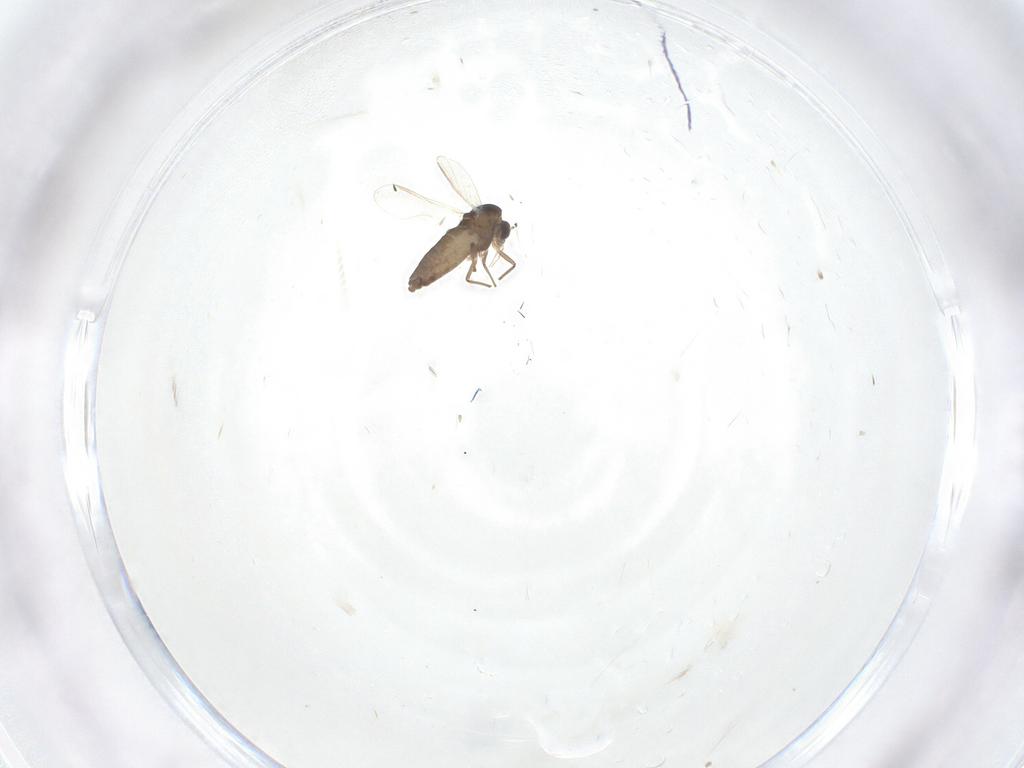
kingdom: Animalia
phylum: Arthropoda
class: Insecta
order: Diptera
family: Chironomidae
